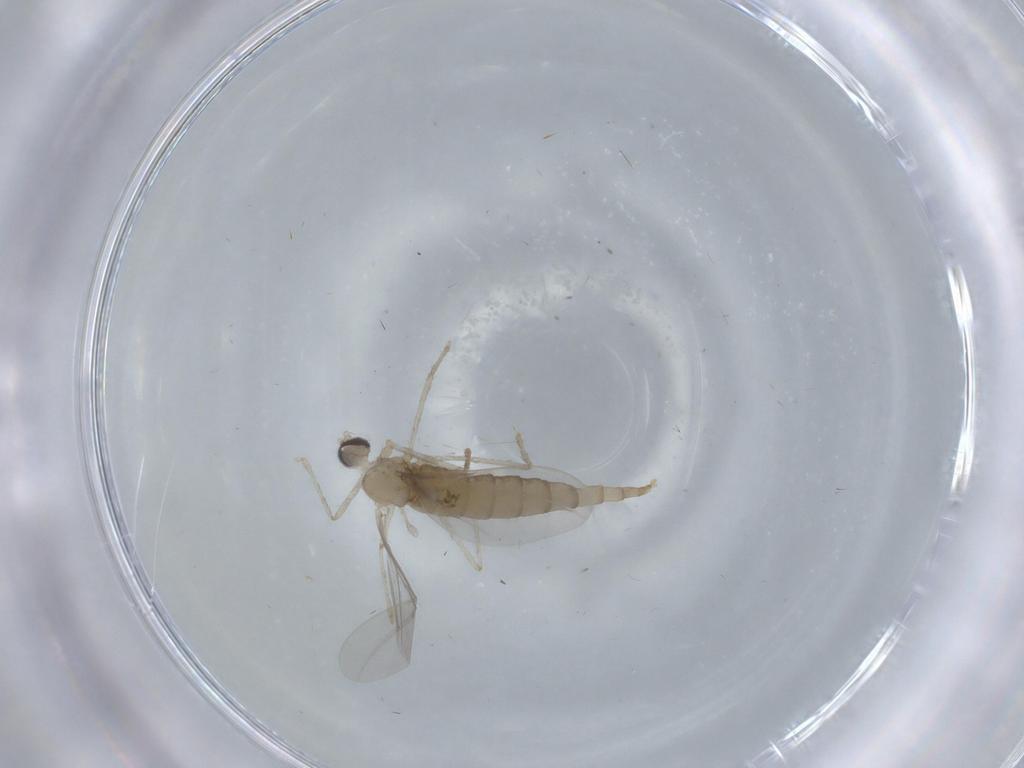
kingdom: Animalia
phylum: Arthropoda
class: Insecta
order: Diptera
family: Cecidomyiidae
